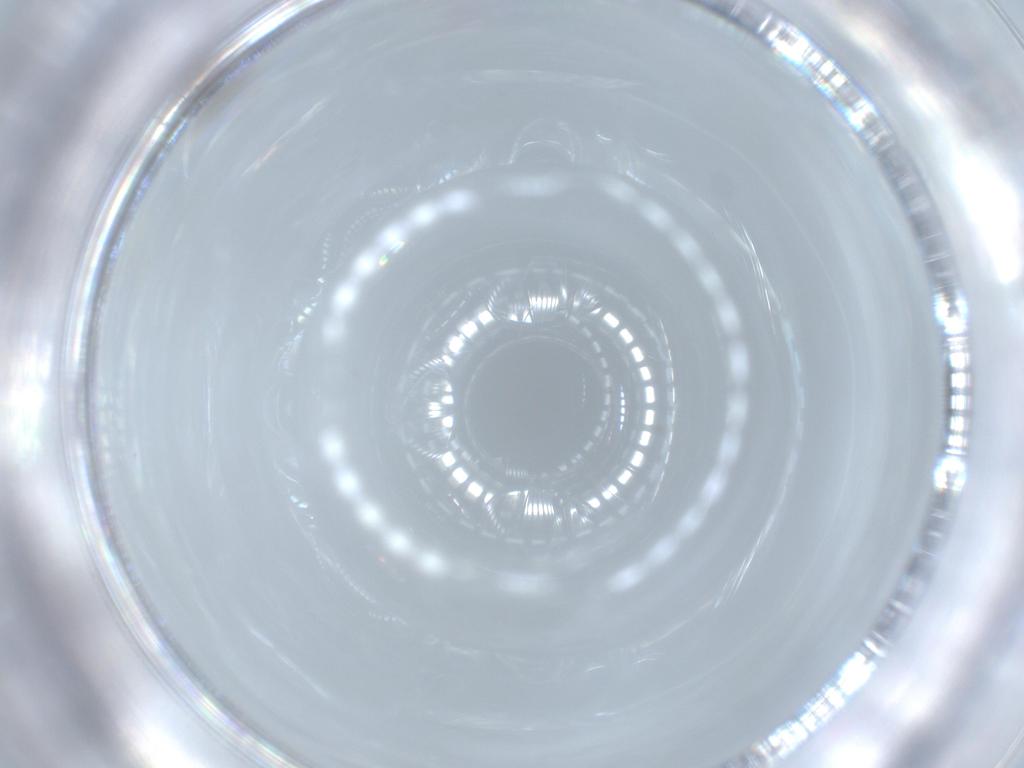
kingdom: Animalia
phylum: Arthropoda
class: Insecta
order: Diptera
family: Cecidomyiidae
